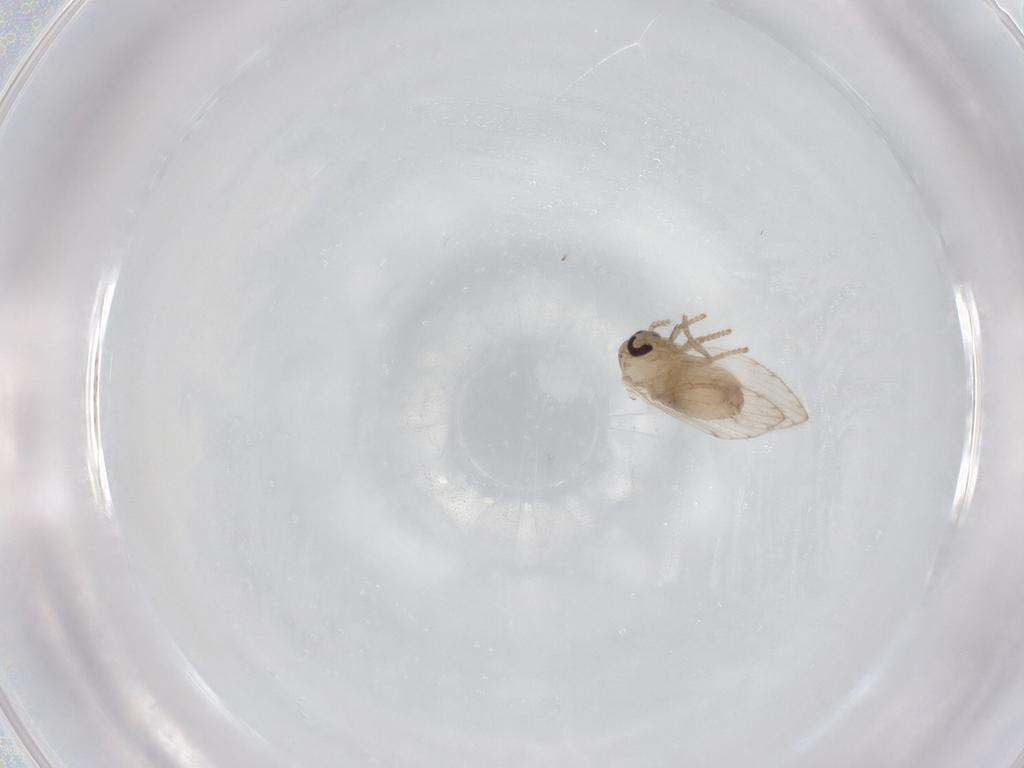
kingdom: Animalia
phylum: Arthropoda
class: Insecta
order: Diptera
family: Psychodidae
